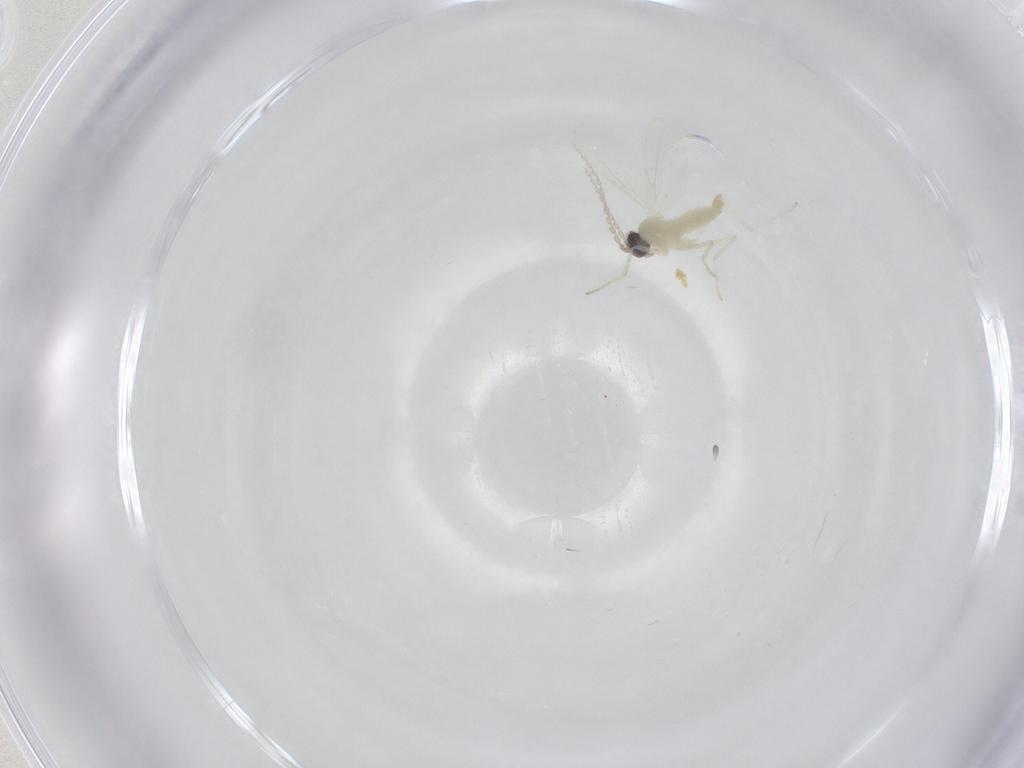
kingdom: Animalia
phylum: Arthropoda
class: Insecta
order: Diptera
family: Cecidomyiidae
